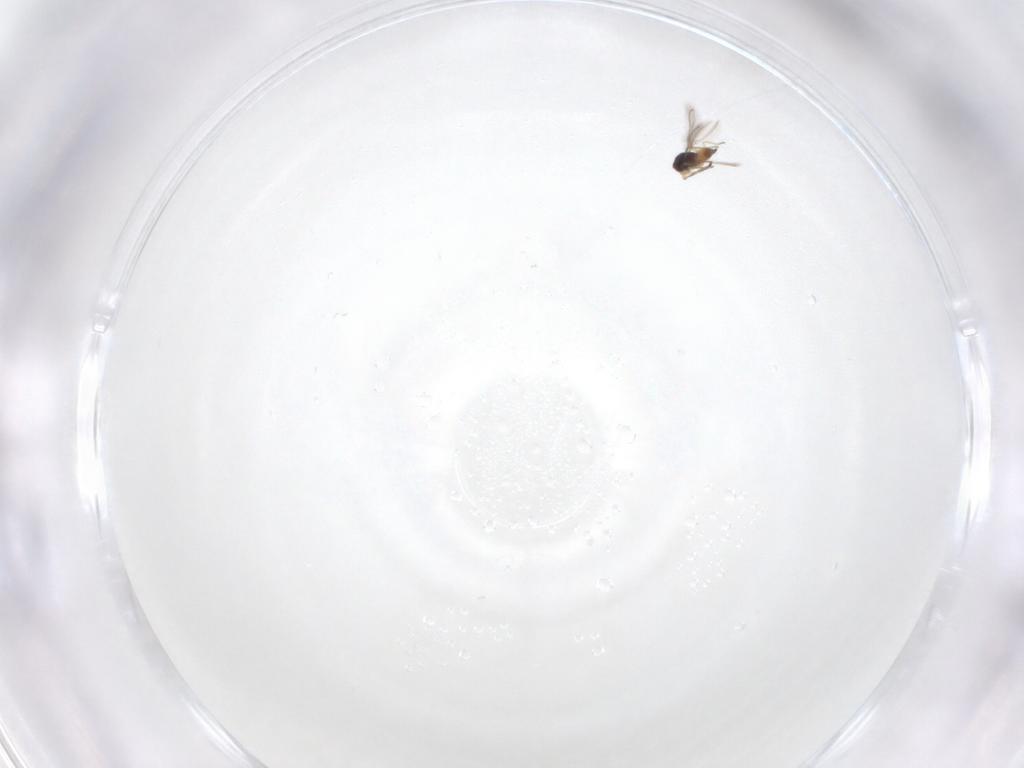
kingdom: Animalia
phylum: Arthropoda
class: Insecta
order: Hymenoptera
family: Mymaridae
